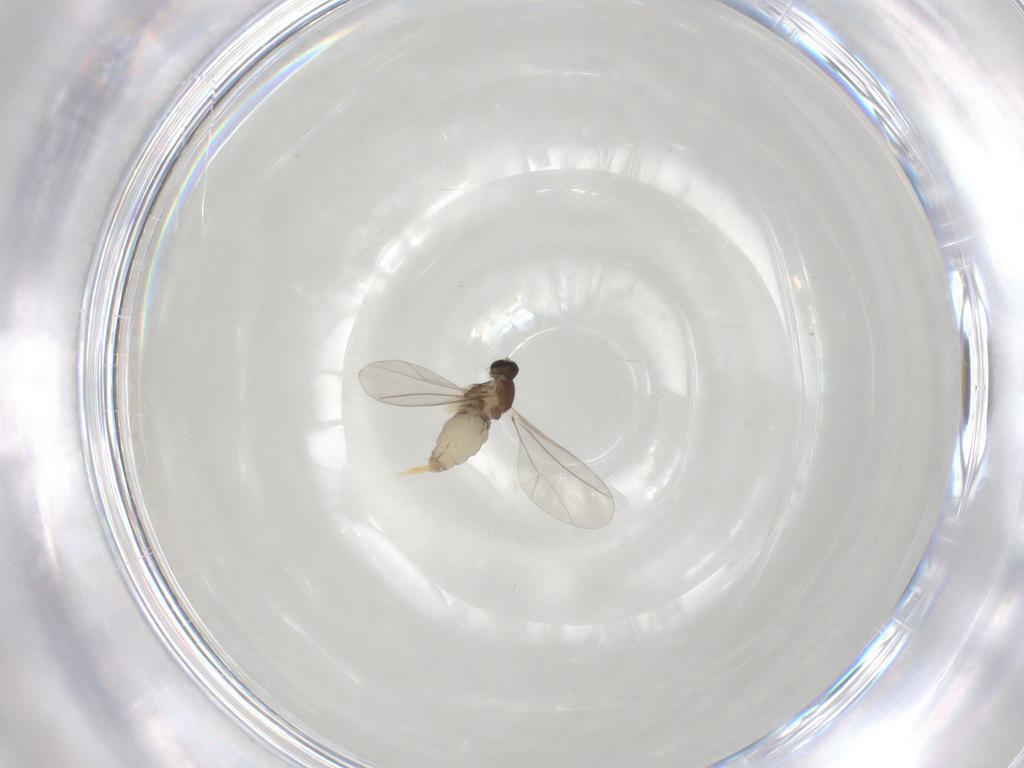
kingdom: Animalia
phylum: Arthropoda
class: Insecta
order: Diptera
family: Cecidomyiidae
